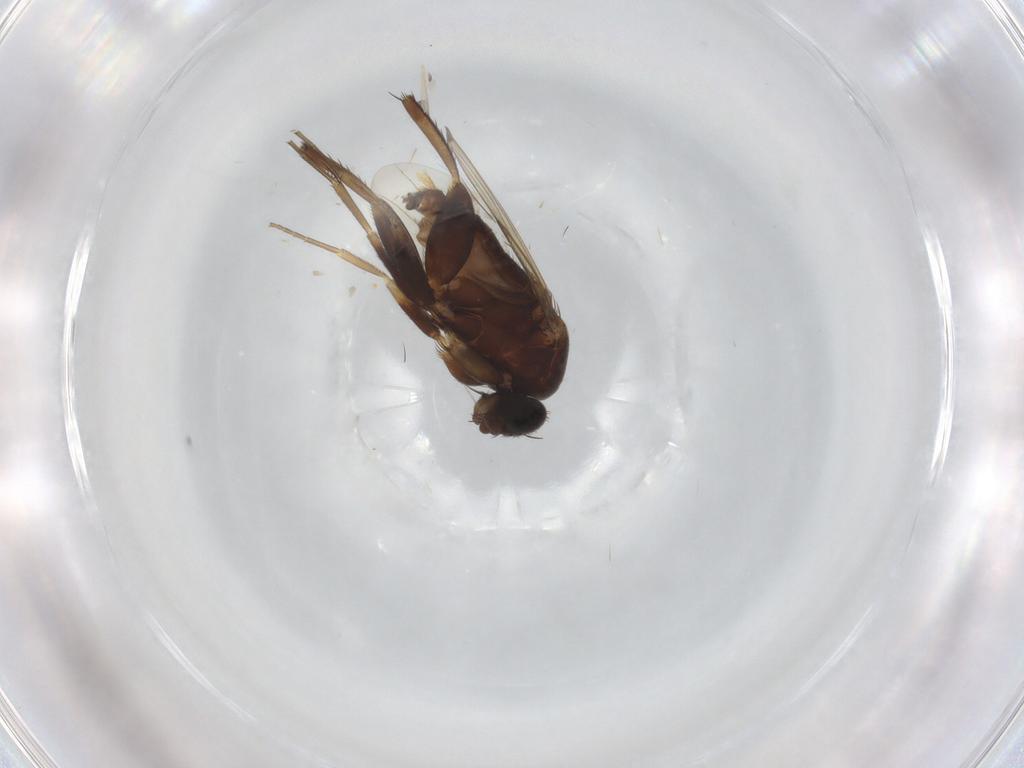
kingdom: Animalia
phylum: Arthropoda
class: Insecta
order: Diptera
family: Phoridae
